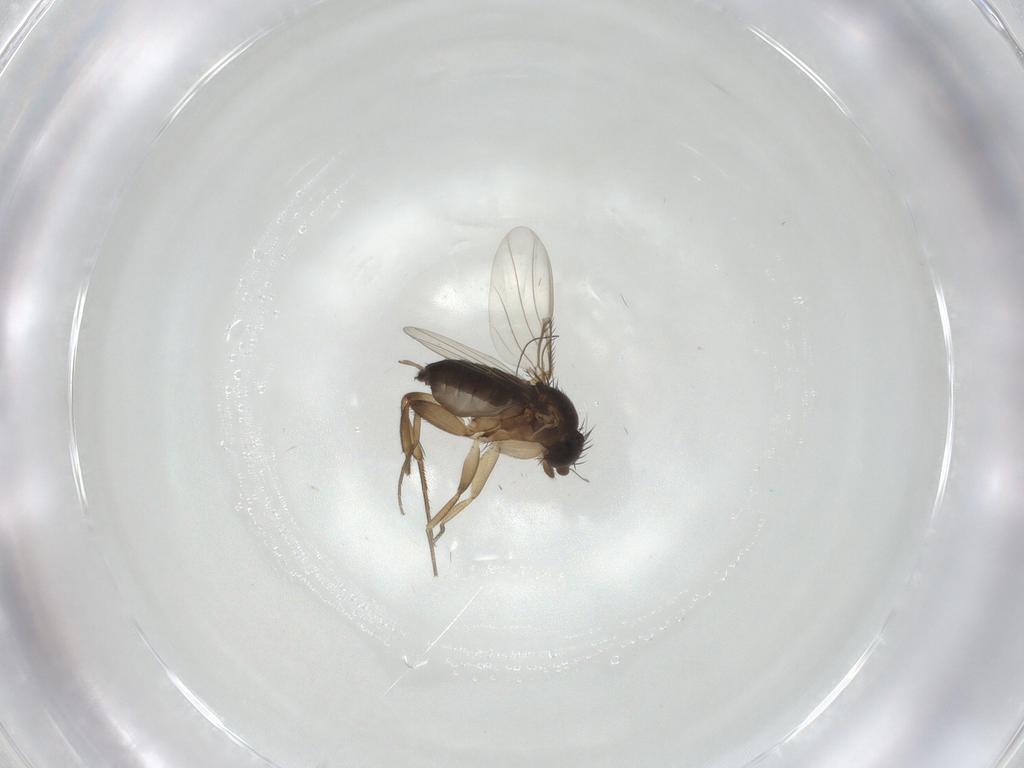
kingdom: Animalia
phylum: Arthropoda
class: Insecta
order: Diptera
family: Phoridae
